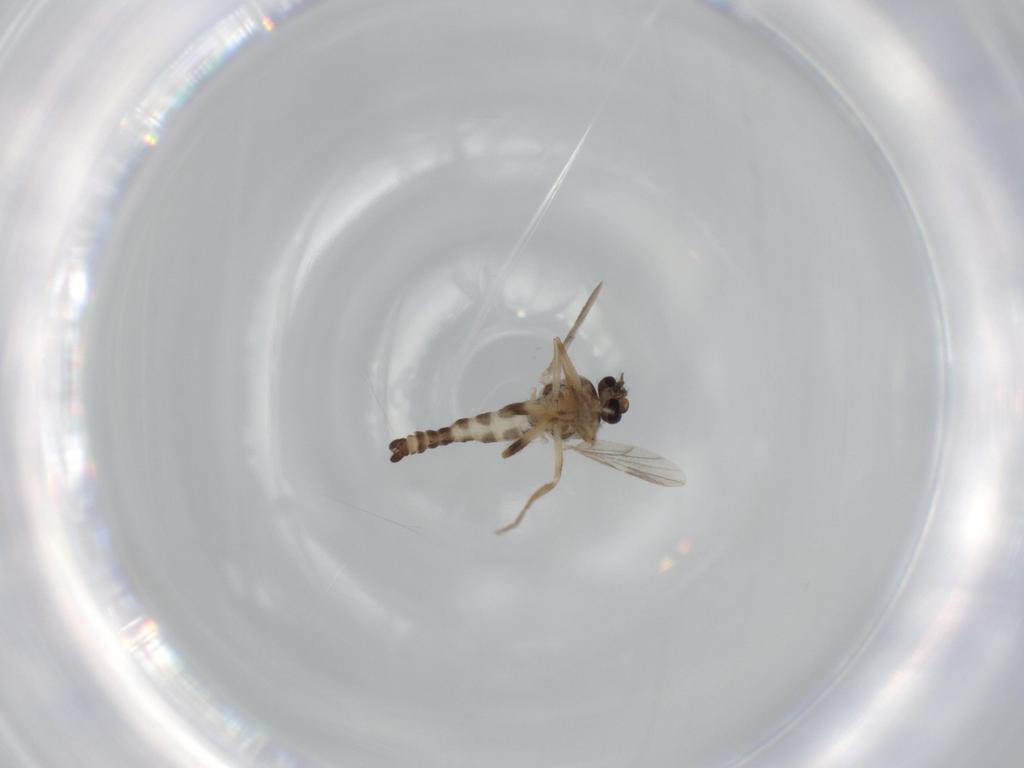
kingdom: Animalia
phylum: Arthropoda
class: Insecta
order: Diptera
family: Ceratopogonidae
